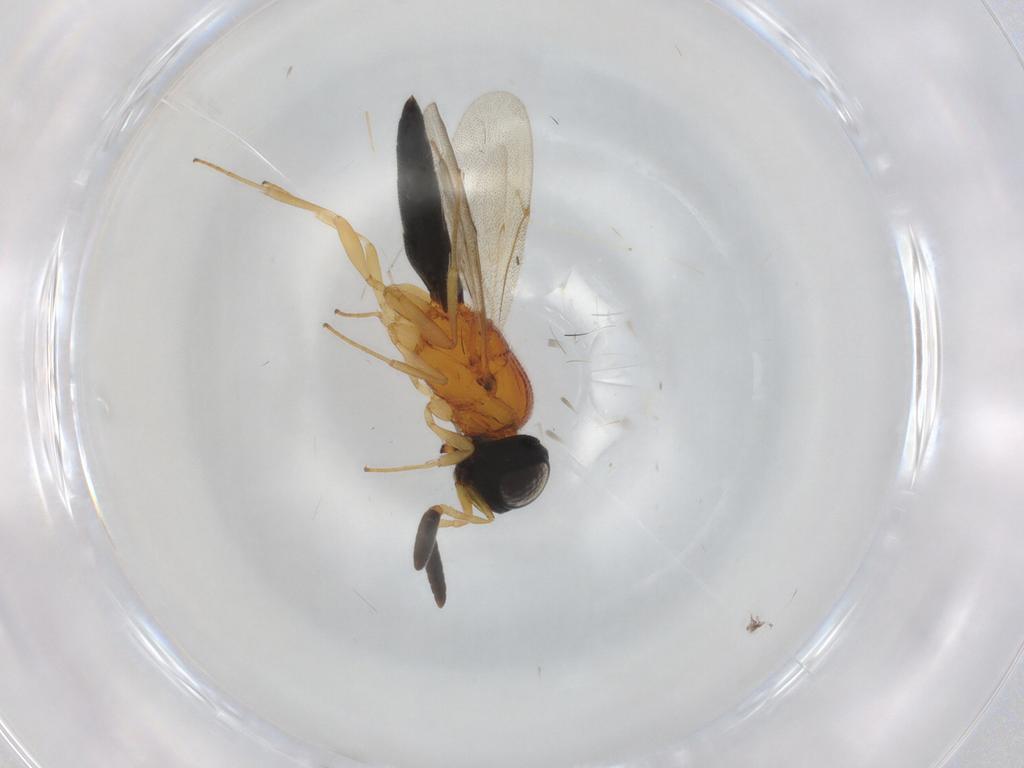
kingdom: Animalia
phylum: Arthropoda
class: Insecta
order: Hymenoptera
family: Scelionidae
